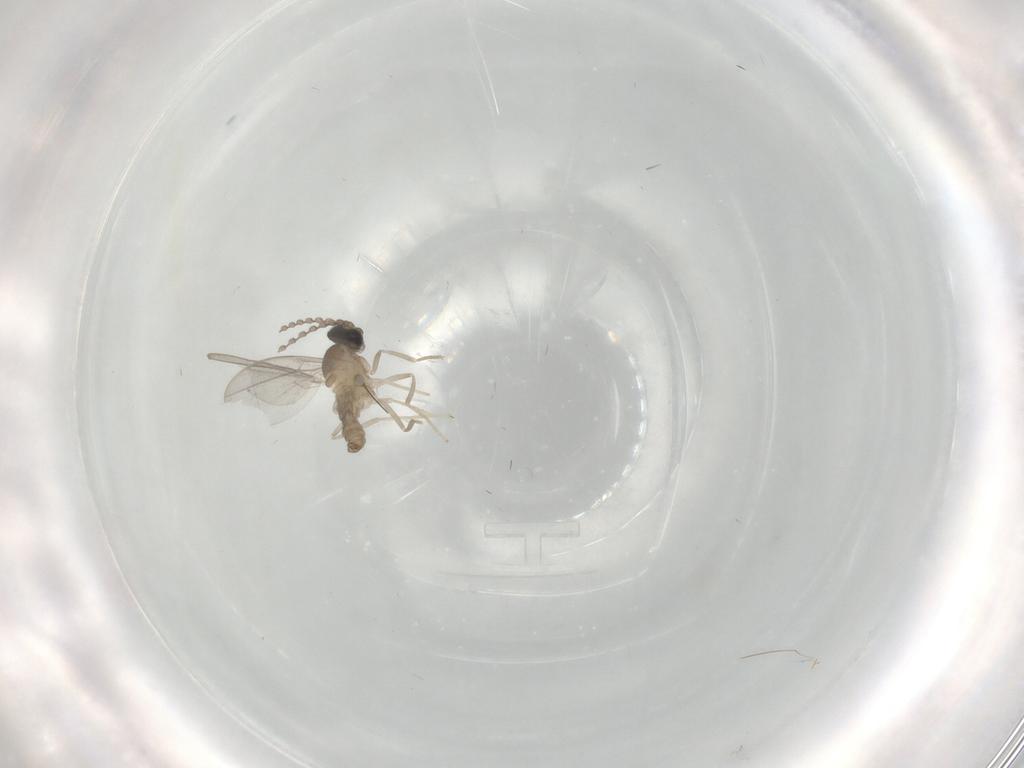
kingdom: Animalia
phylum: Arthropoda
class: Insecta
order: Diptera
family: Cecidomyiidae
